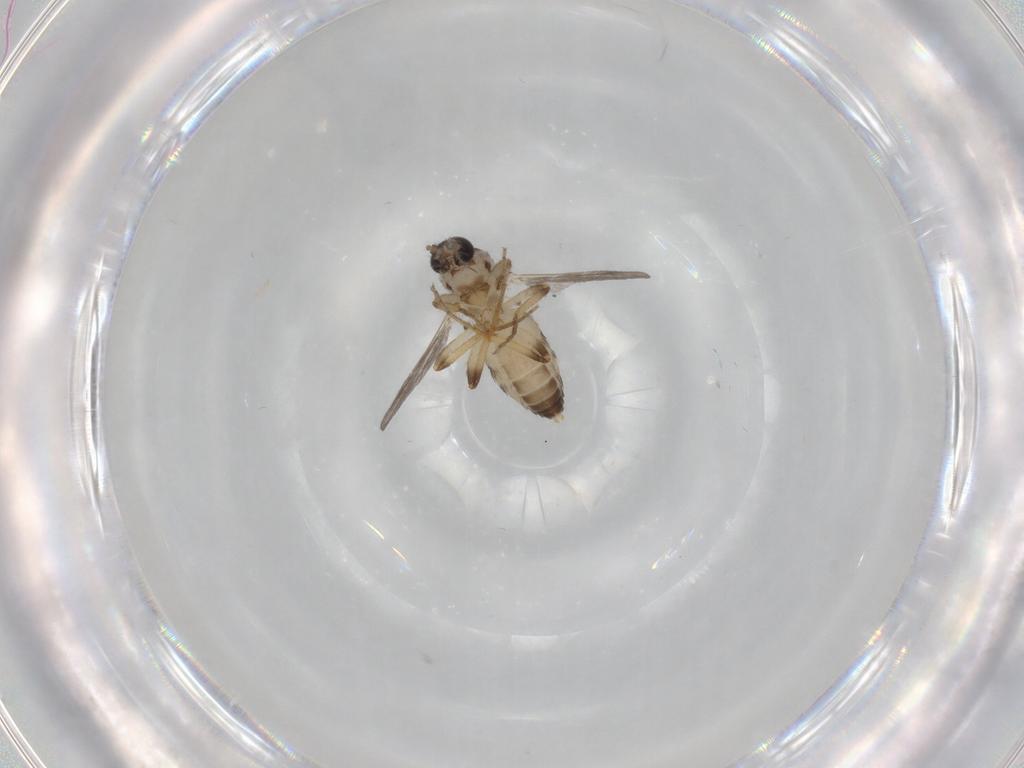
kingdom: Animalia
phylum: Arthropoda
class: Insecta
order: Diptera
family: Ceratopogonidae
